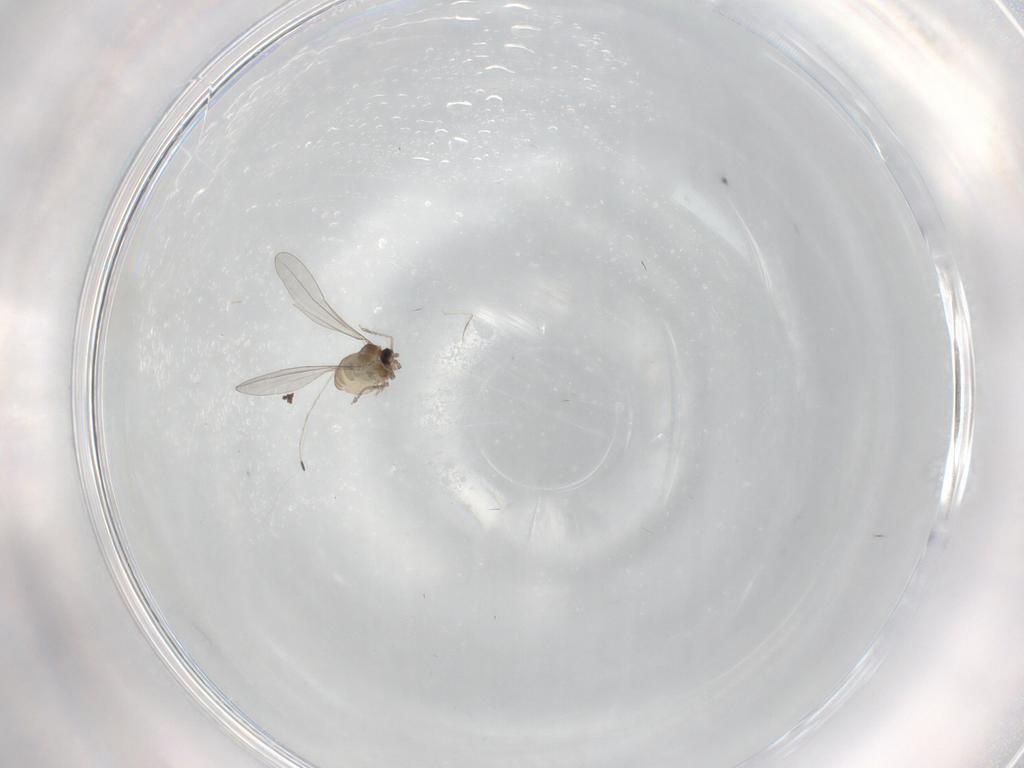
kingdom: Animalia
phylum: Arthropoda
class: Insecta
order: Diptera
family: Cecidomyiidae
